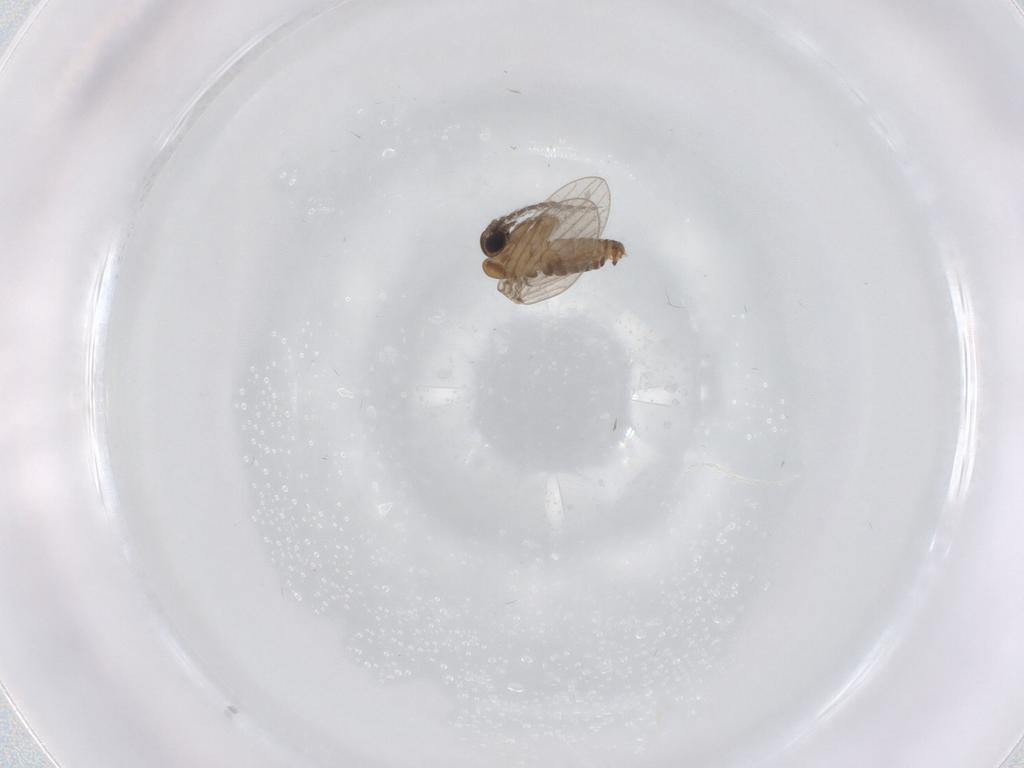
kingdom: Animalia
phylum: Arthropoda
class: Insecta
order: Diptera
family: Psychodidae
